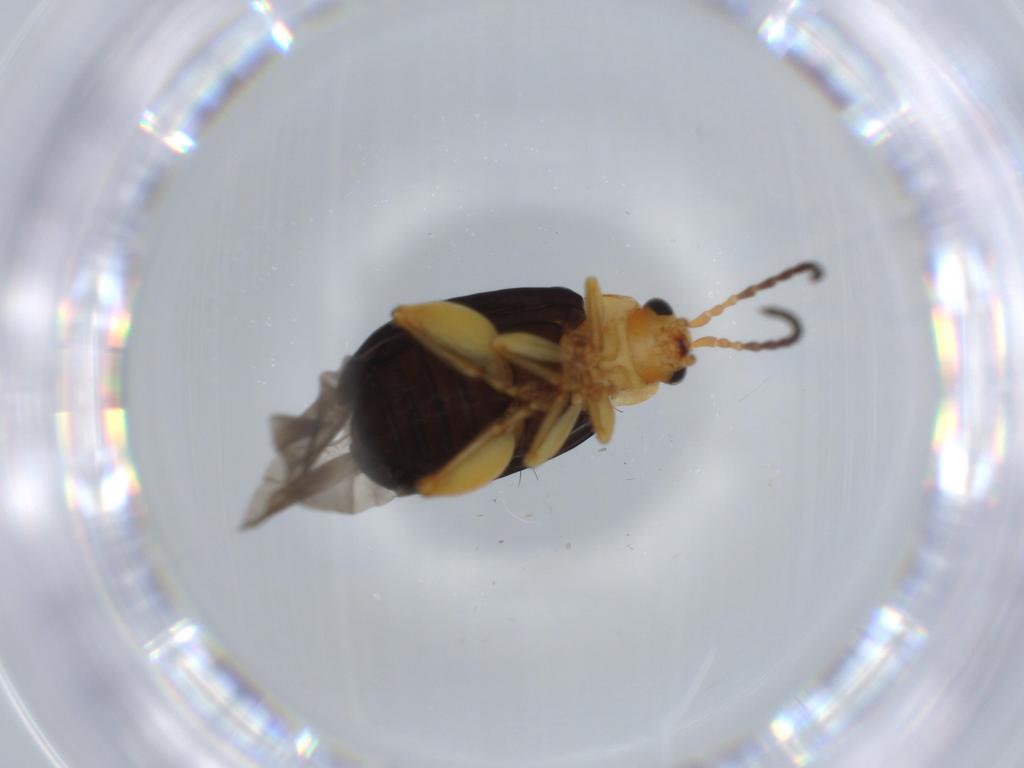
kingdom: Animalia
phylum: Arthropoda
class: Insecta
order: Coleoptera
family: Chrysomelidae
